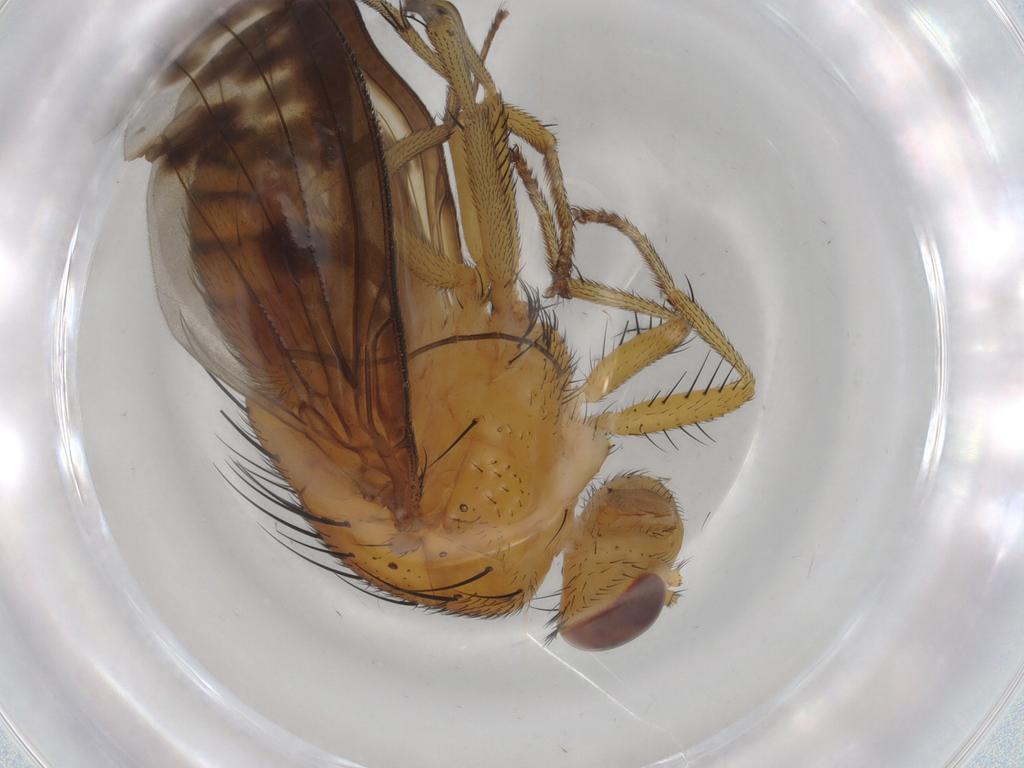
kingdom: Animalia
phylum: Arthropoda
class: Insecta
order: Diptera
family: Mycetophilidae
